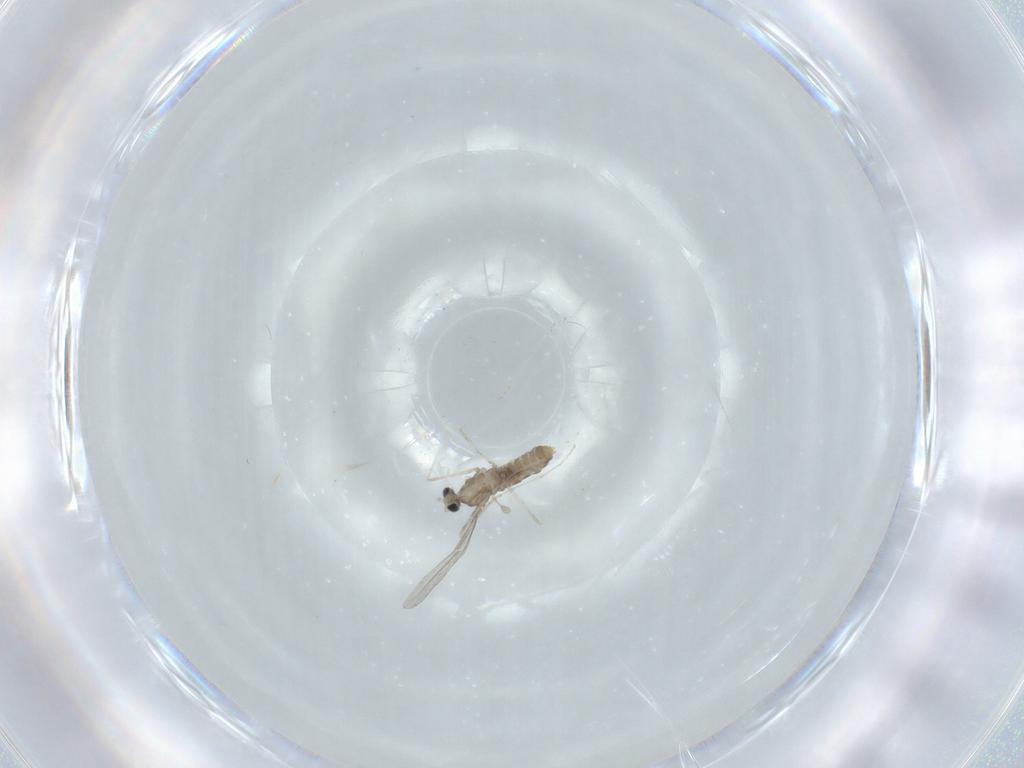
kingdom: Animalia
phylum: Arthropoda
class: Insecta
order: Diptera
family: Cecidomyiidae
